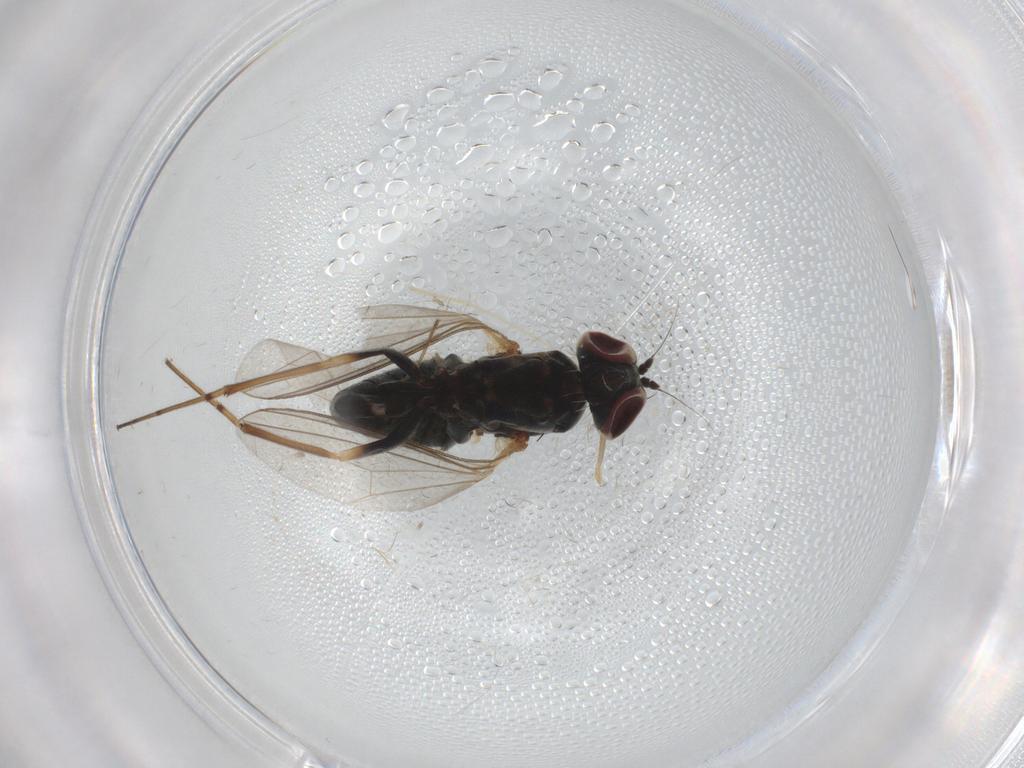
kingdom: Animalia
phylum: Arthropoda
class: Insecta
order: Diptera
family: Dolichopodidae
